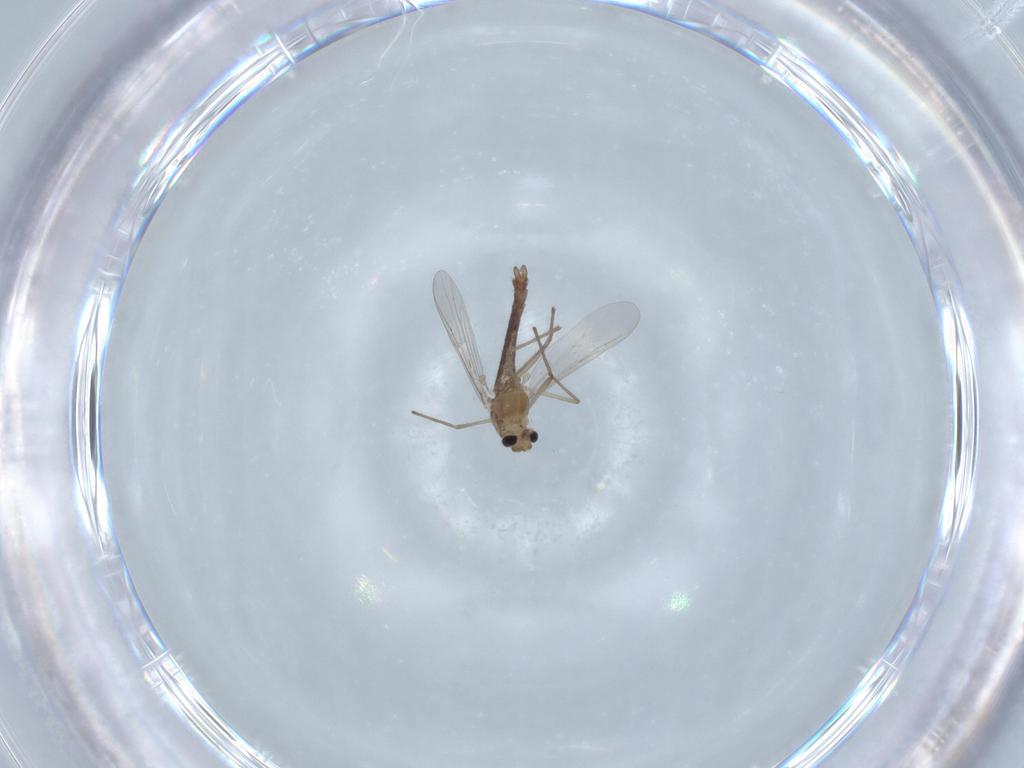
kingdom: Animalia
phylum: Arthropoda
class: Insecta
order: Diptera
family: Chironomidae
